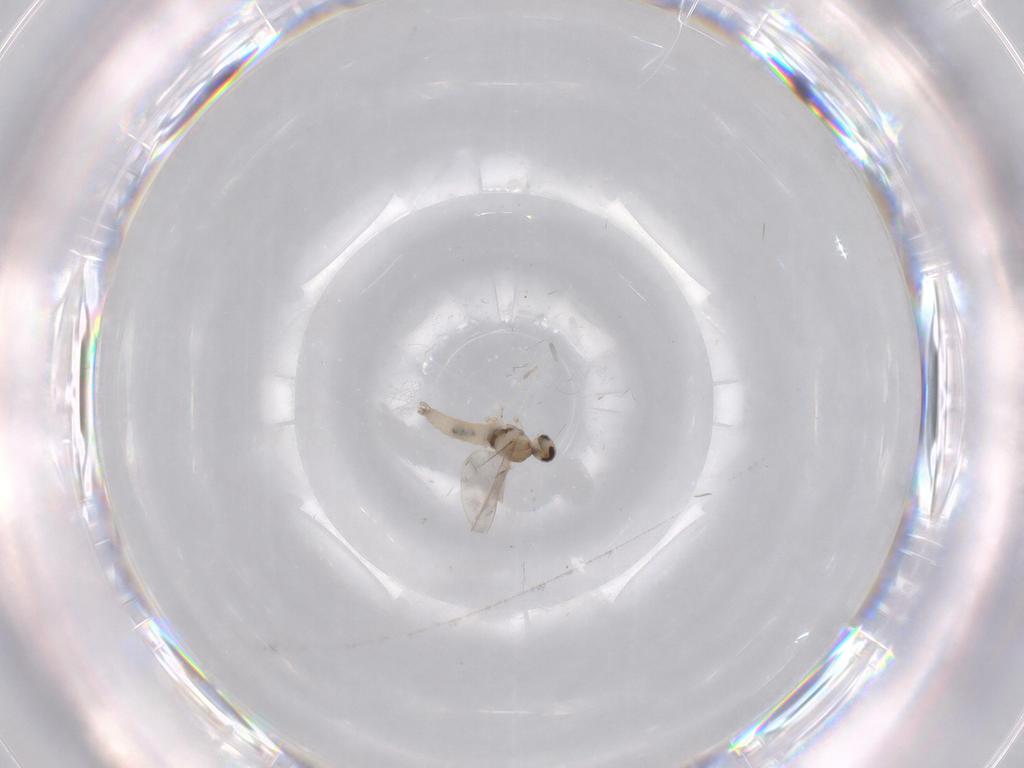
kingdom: Animalia
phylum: Arthropoda
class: Insecta
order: Diptera
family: Cecidomyiidae
